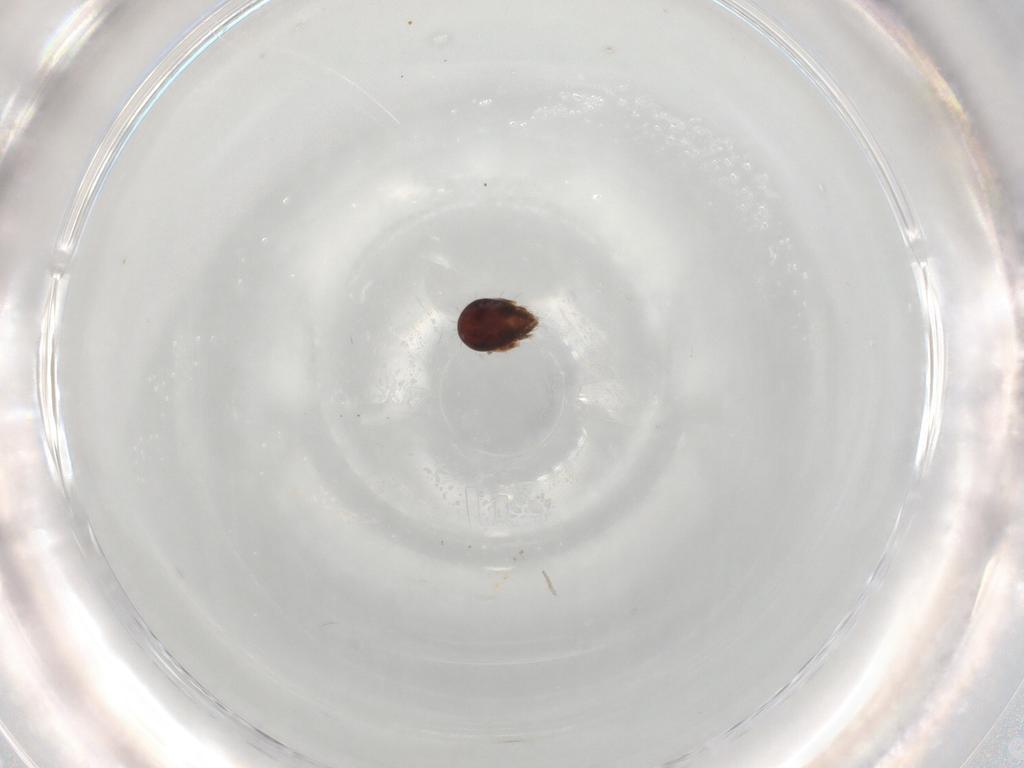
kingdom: Animalia
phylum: Arthropoda
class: Arachnida
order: Sarcoptiformes
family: Humerobatidae
